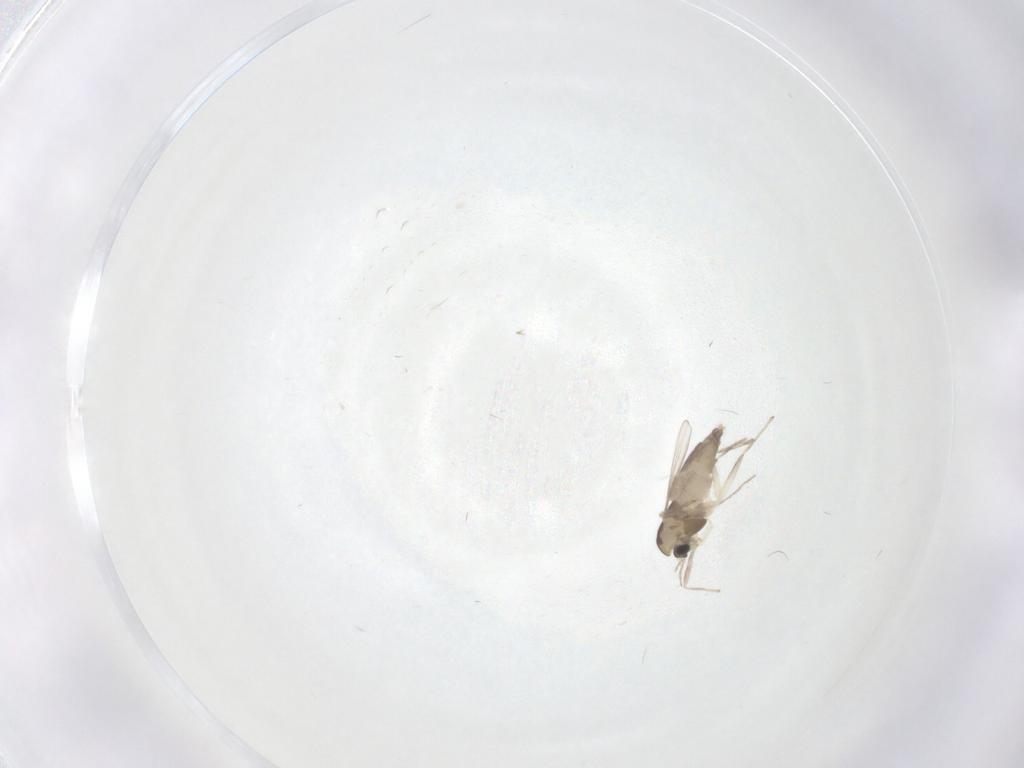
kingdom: Animalia
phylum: Arthropoda
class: Insecta
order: Diptera
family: Chironomidae
